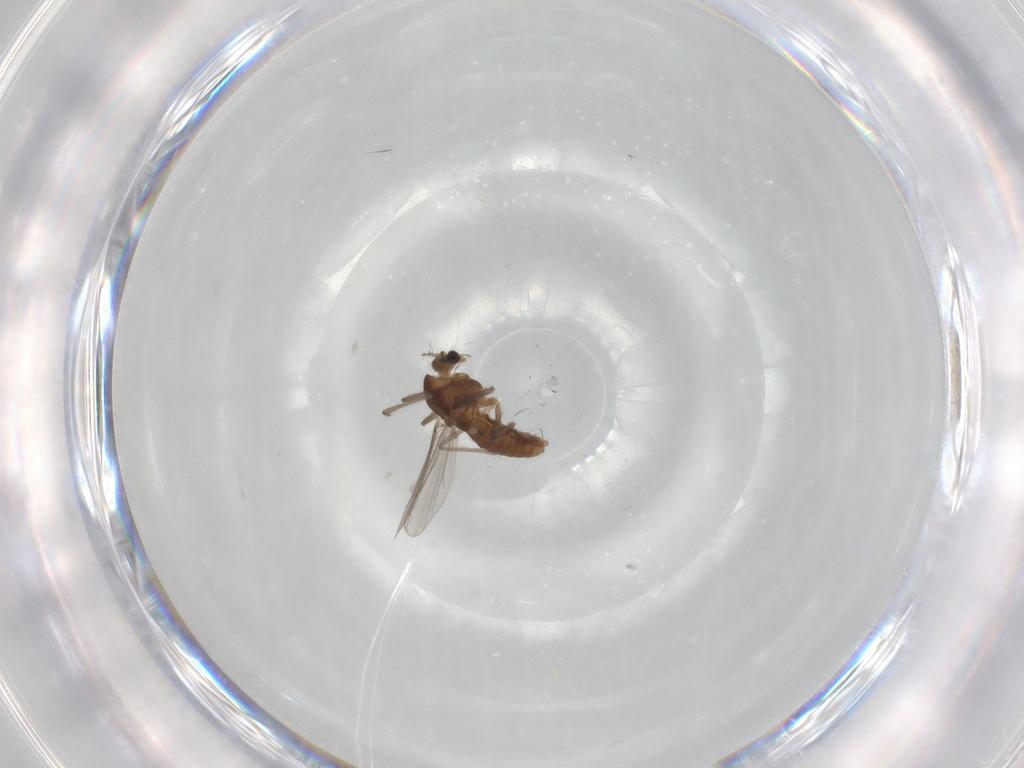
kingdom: Animalia
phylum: Arthropoda
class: Insecta
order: Diptera
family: Chironomidae
